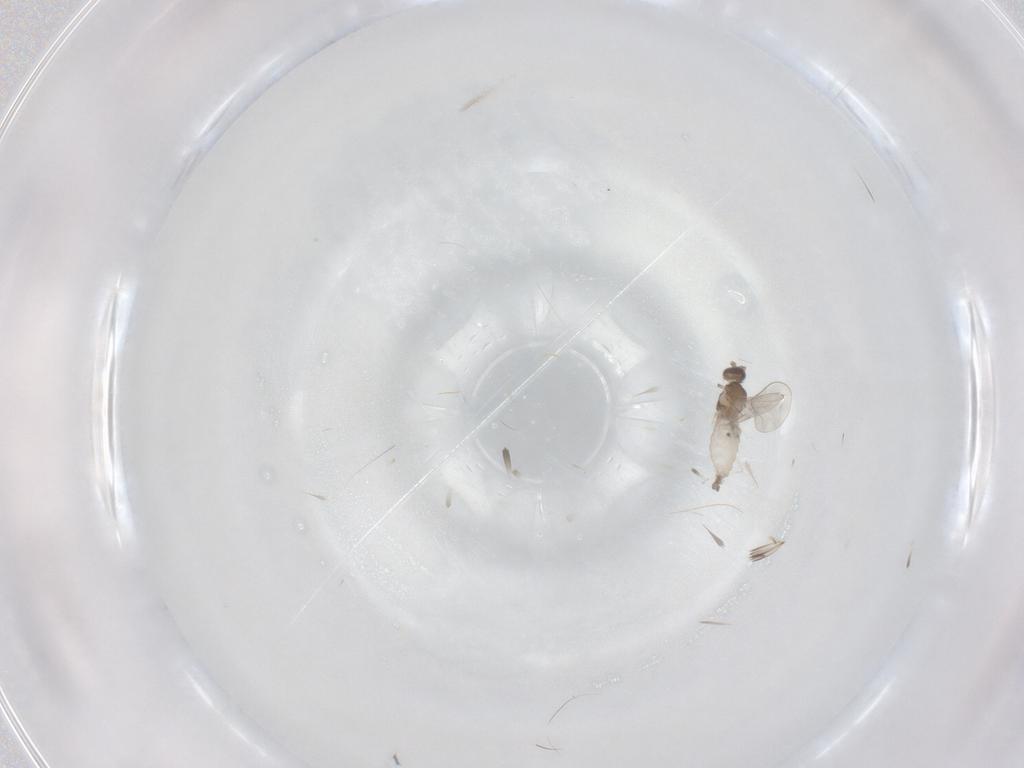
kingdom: Animalia
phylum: Arthropoda
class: Insecta
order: Diptera
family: Cecidomyiidae
